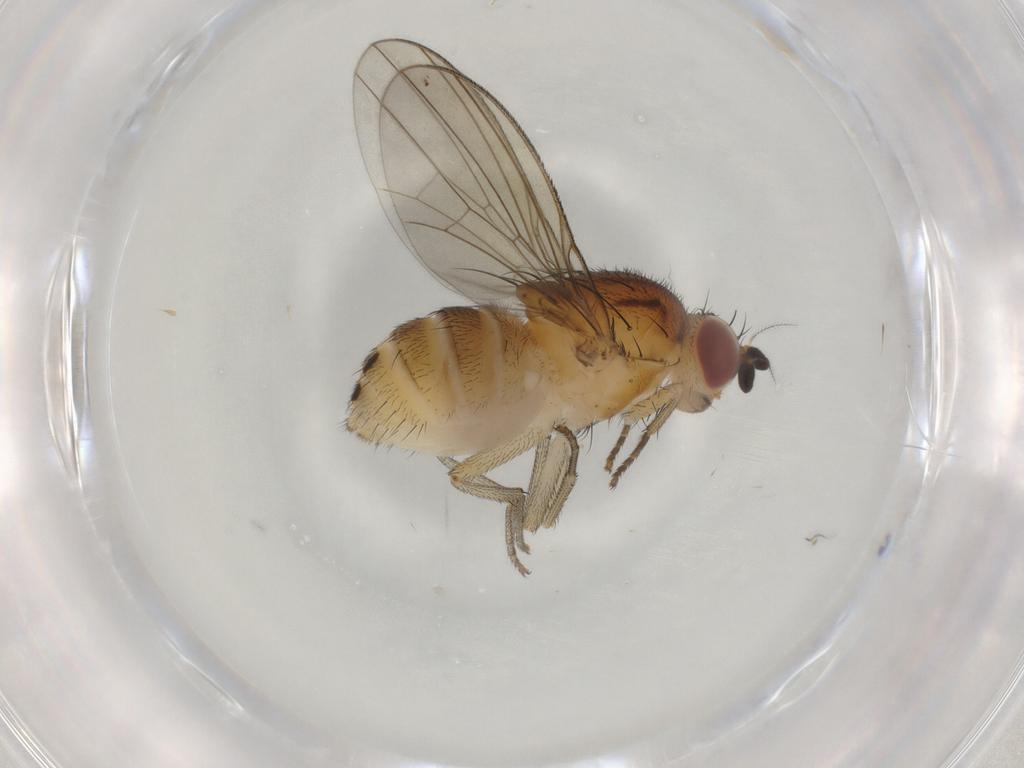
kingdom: Animalia
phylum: Arthropoda
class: Insecta
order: Diptera
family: Lauxaniidae
